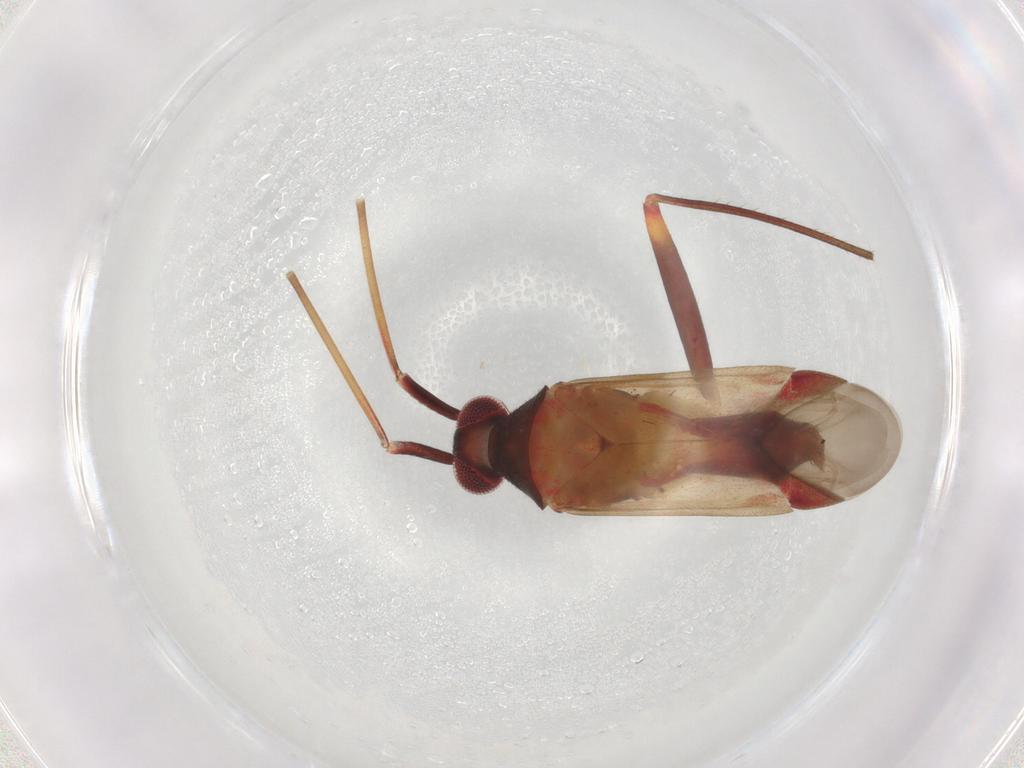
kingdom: Animalia
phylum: Arthropoda
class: Insecta
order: Hemiptera
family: Miridae
